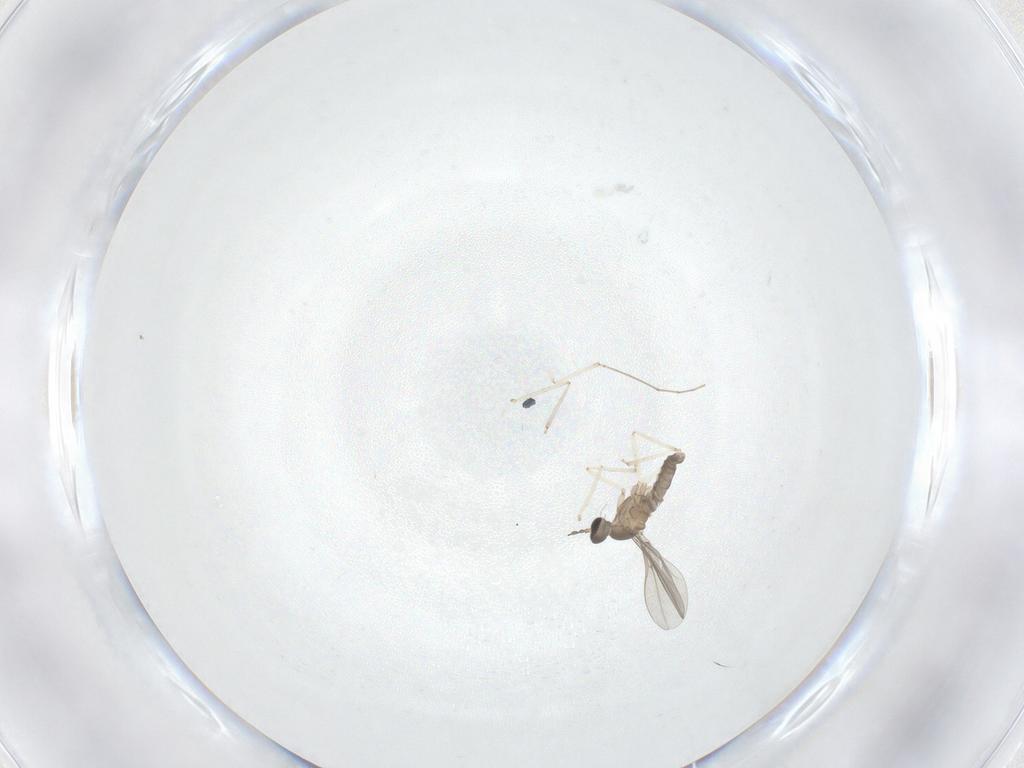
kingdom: Animalia
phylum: Arthropoda
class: Insecta
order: Diptera
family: Cecidomyiidae
